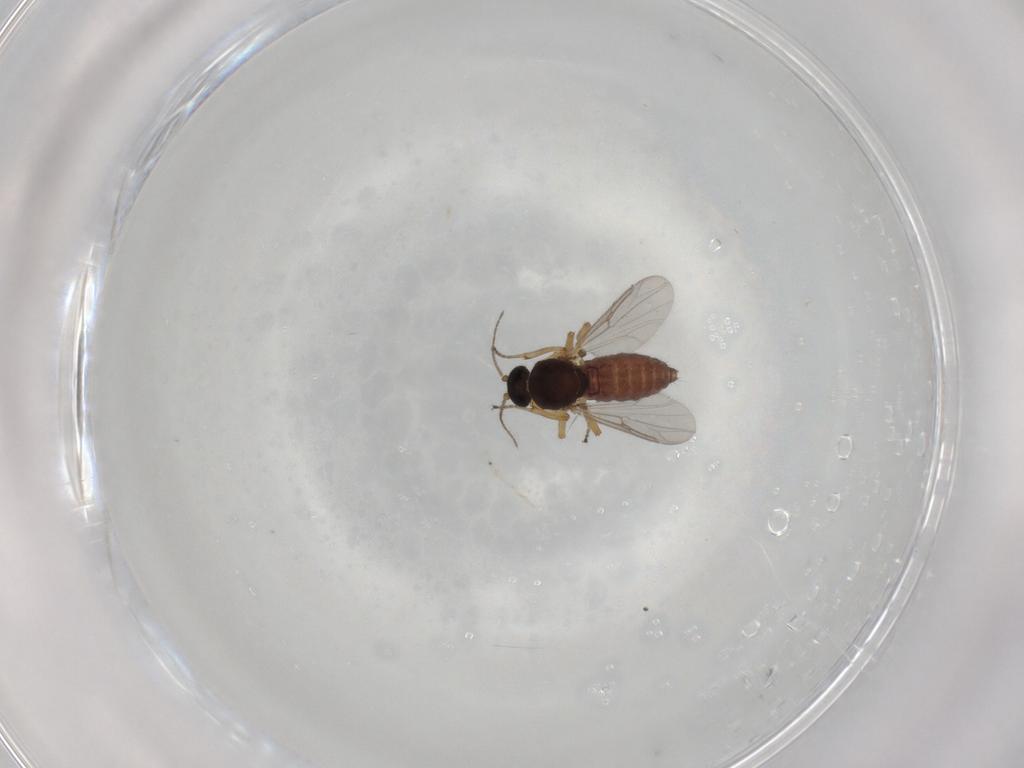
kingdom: Animalia
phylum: Arthropoda
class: Insecta
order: Diptera
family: Ceratopogonidae
